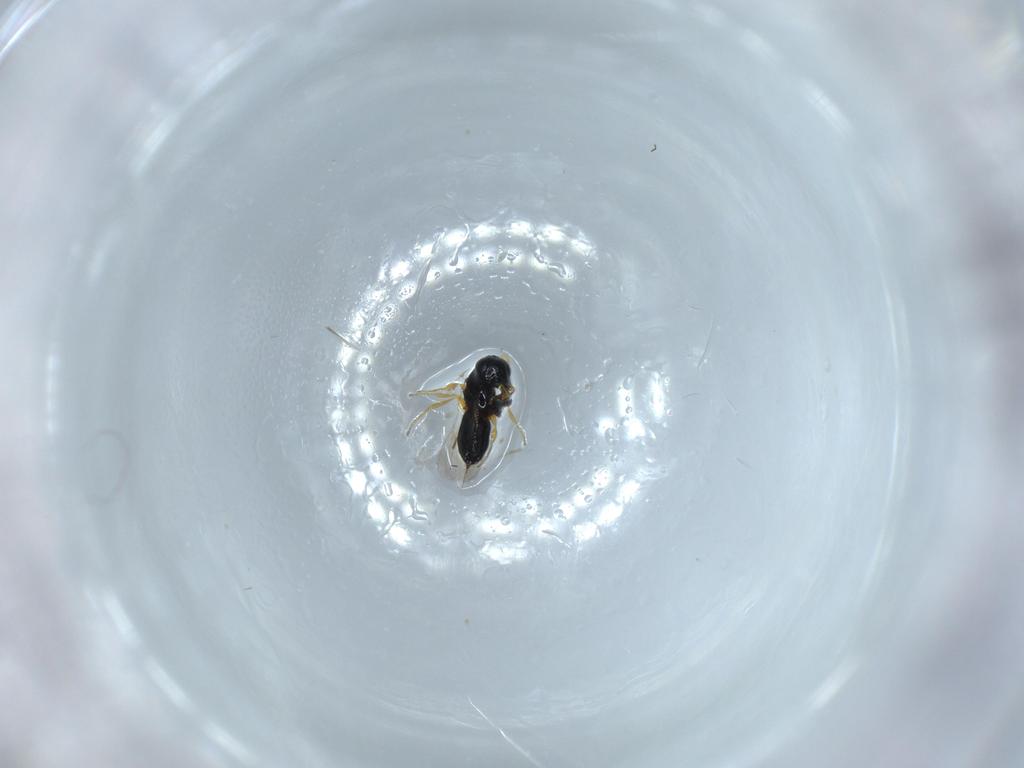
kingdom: Animalia
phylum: Arthropoda
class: Insecta
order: Hymenoptera
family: Scelionidae
